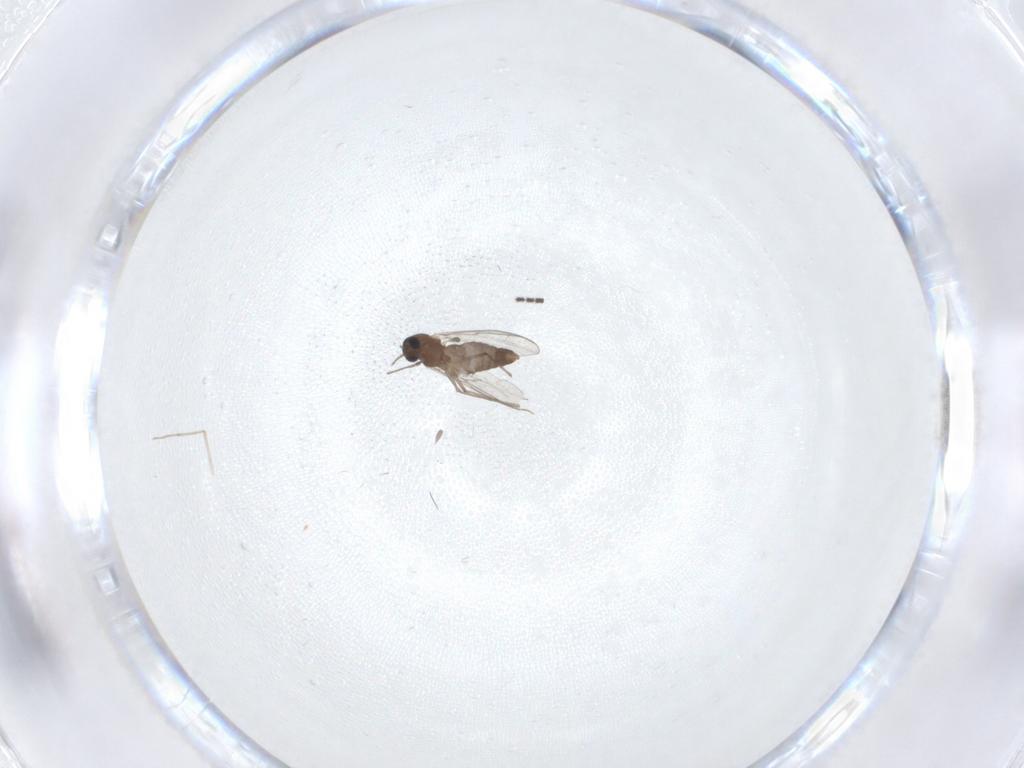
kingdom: Animalia
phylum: Arthropoda
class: Insecta
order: Diptera
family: Chironomidae
